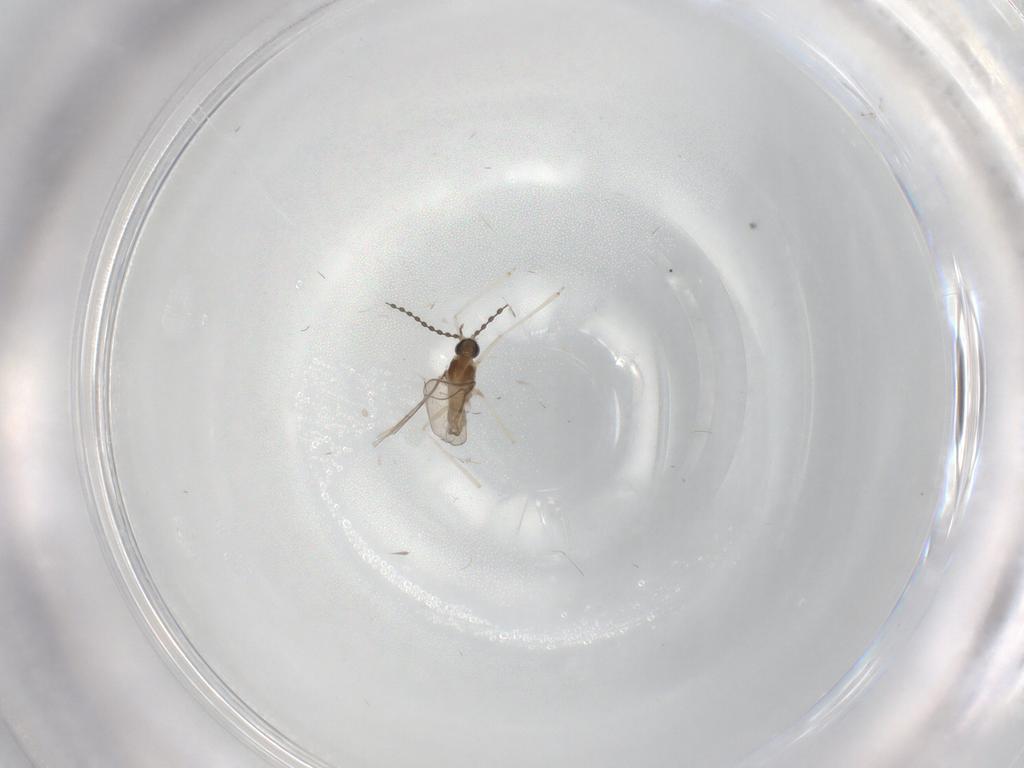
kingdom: Animalia
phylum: Arthropoda
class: Insecta
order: Diptera
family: Cecidomyiidae
